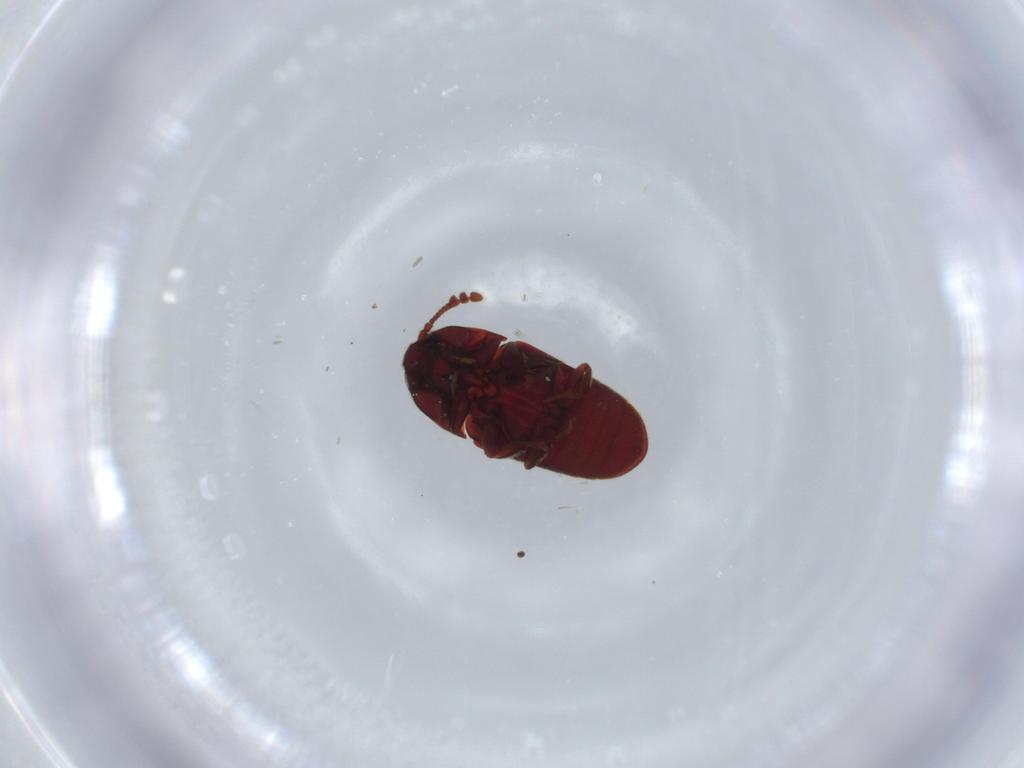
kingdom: Animalia
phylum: Arthropoda
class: Insecta
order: Coleoptera
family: Throscidae
